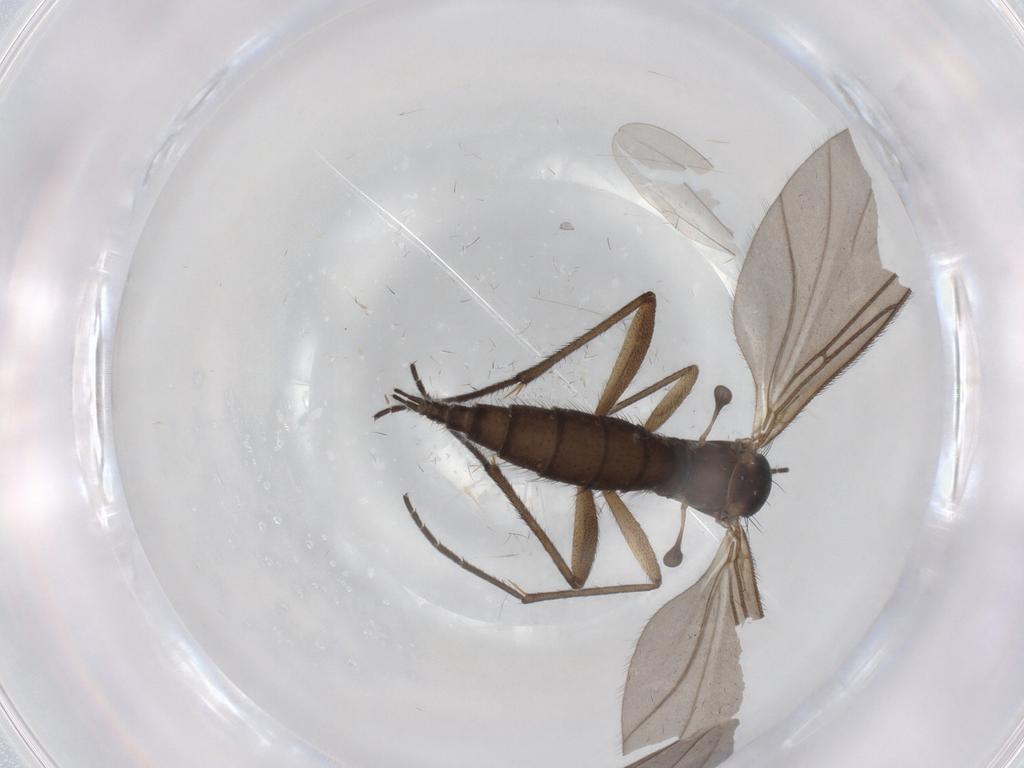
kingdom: Animalia
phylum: Arthropoda
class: Insecta
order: Diptera
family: Sciaridae
